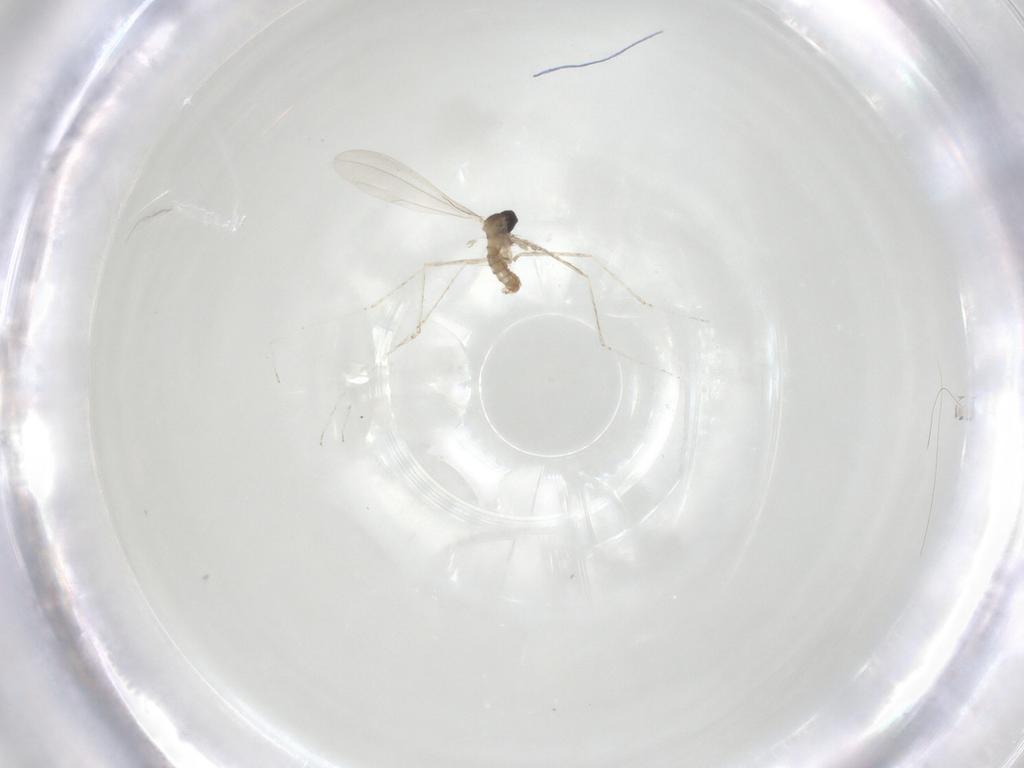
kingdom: Animalia
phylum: Arthropoda
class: Insecta
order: Diptera
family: Cecidomyiidae
